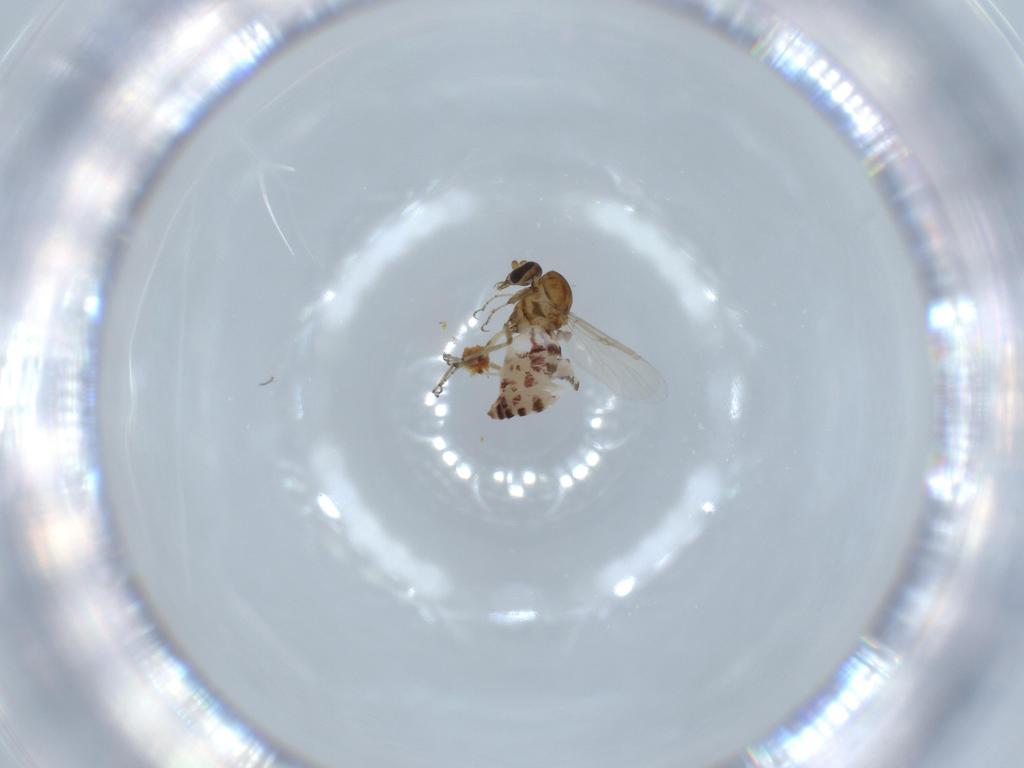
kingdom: Animalia
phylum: Arthropoda
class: Insecta
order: Diptera
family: Ceratopogonidae
